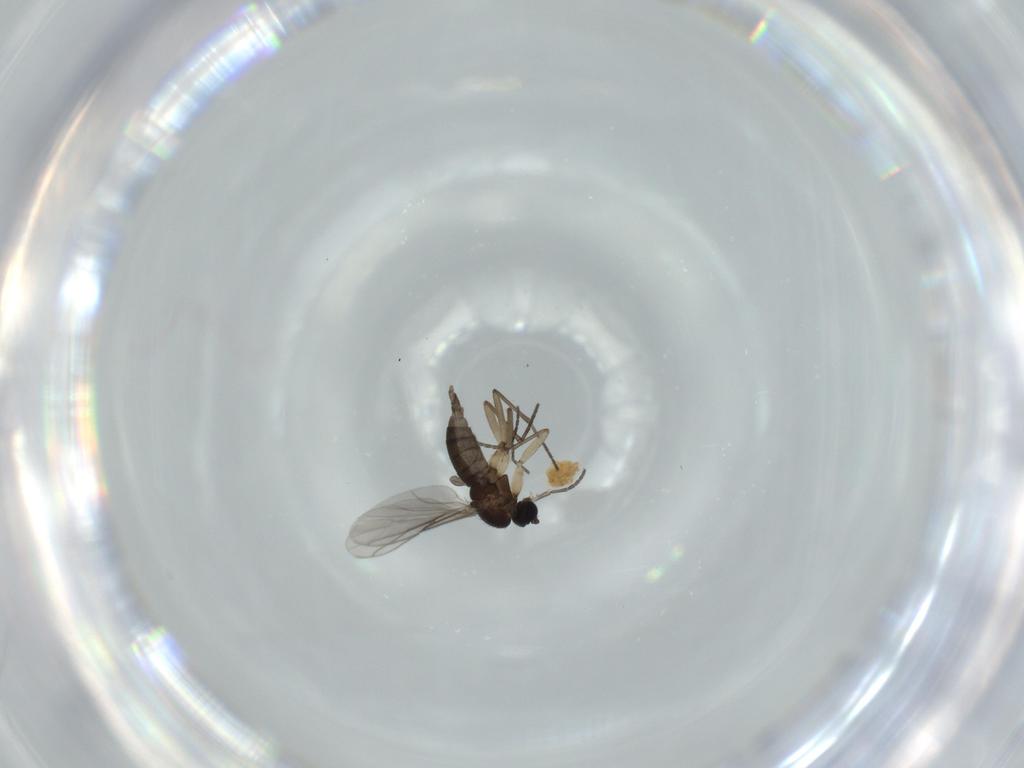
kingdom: Animalia
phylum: Arthropoda
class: Insecta
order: Diptera
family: Sciaridae
